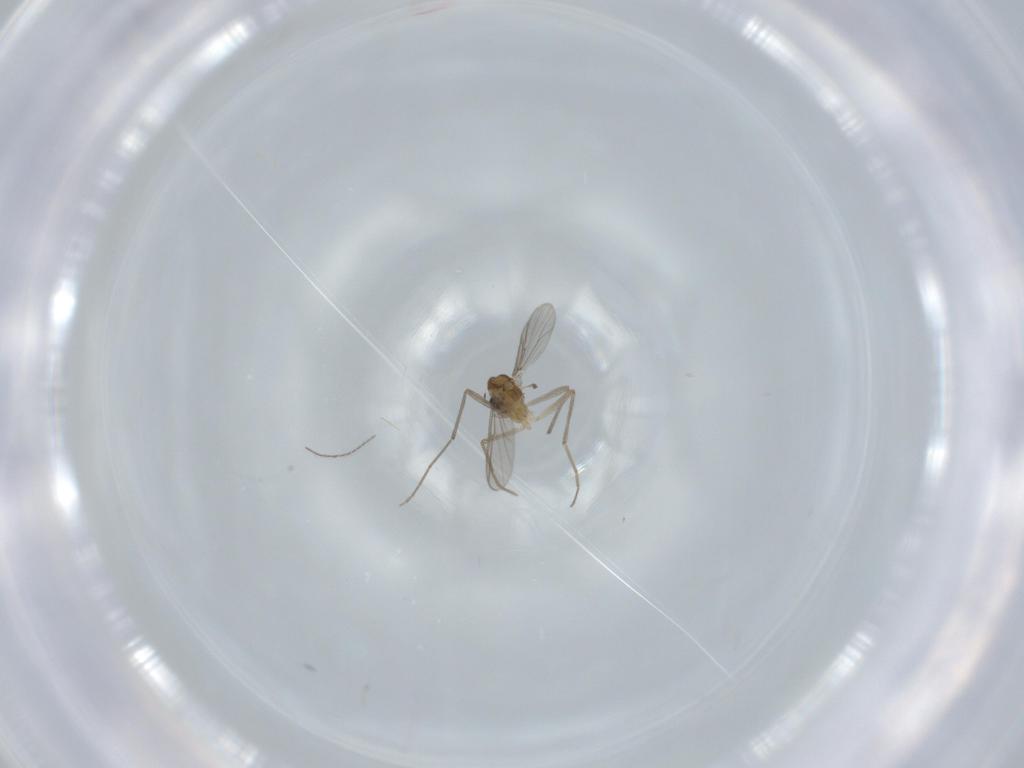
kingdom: Animalia
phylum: Arthropoda
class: Insecta
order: Diptera
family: Chironomidae
